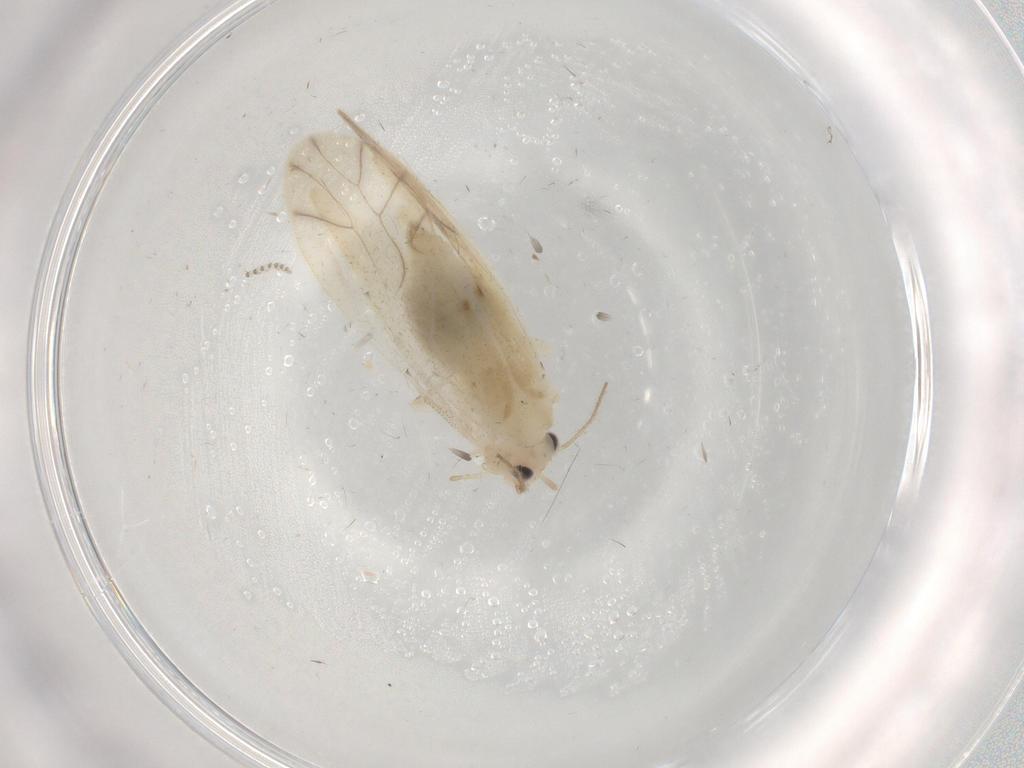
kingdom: Animalia
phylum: Arthropoda
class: Insecta
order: Psocodea
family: Caeciliusidae
